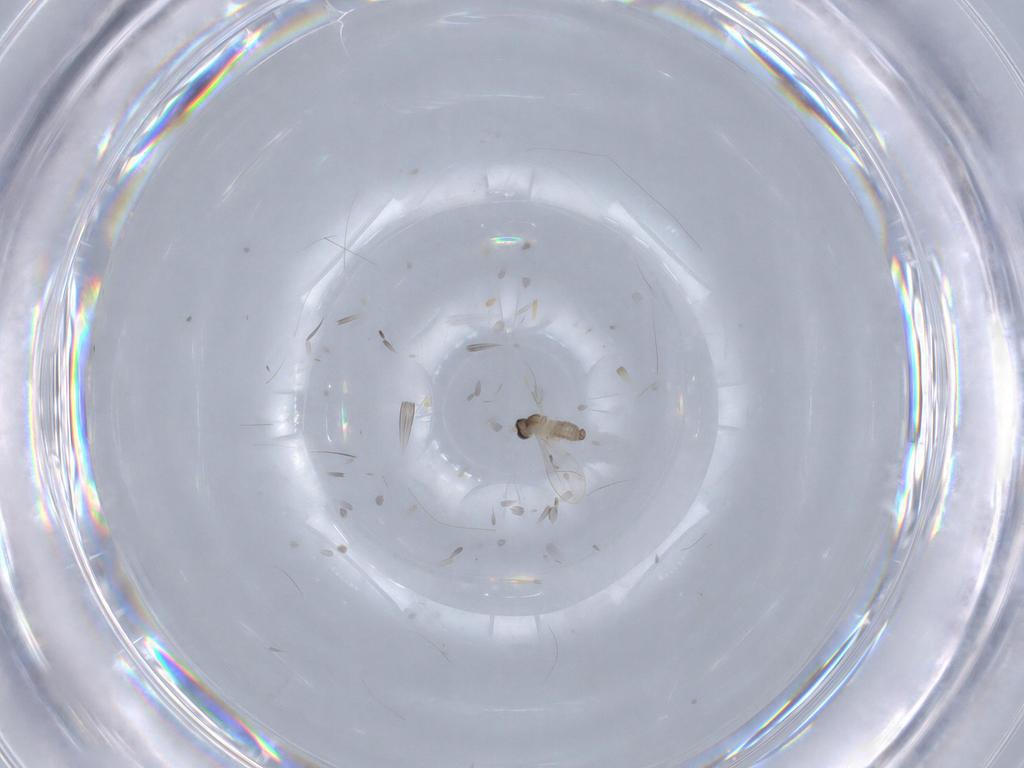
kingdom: Animalia
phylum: Arthropoda
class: Insecta
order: Diptera
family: Cecidomyiidae
